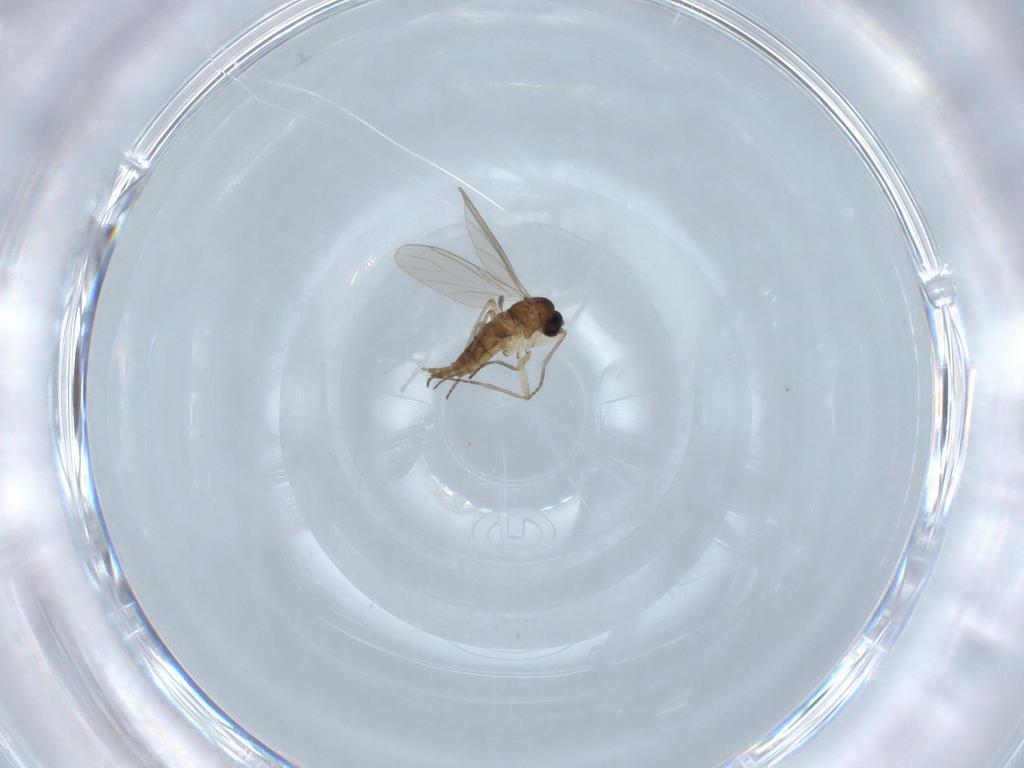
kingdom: Animalia
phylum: Arthropoda
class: Insecta
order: Diptera
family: Sciaridae
